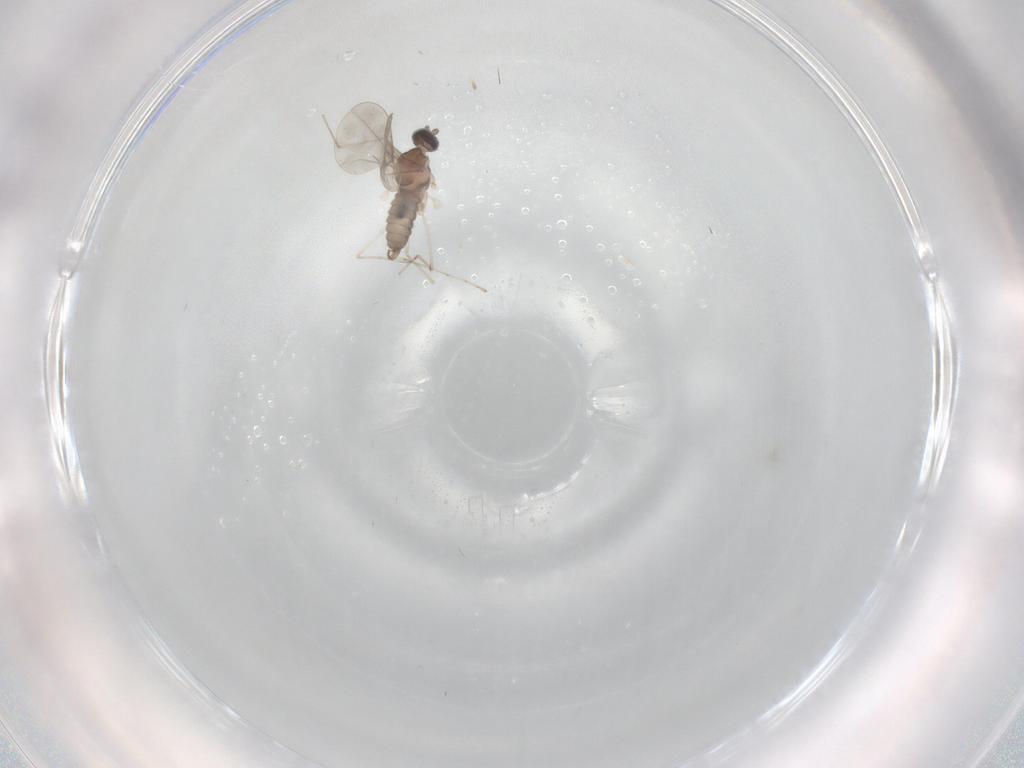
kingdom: Animalia
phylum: Arthropoda
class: Insecta
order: Diptera
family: Cecidomyiidae
